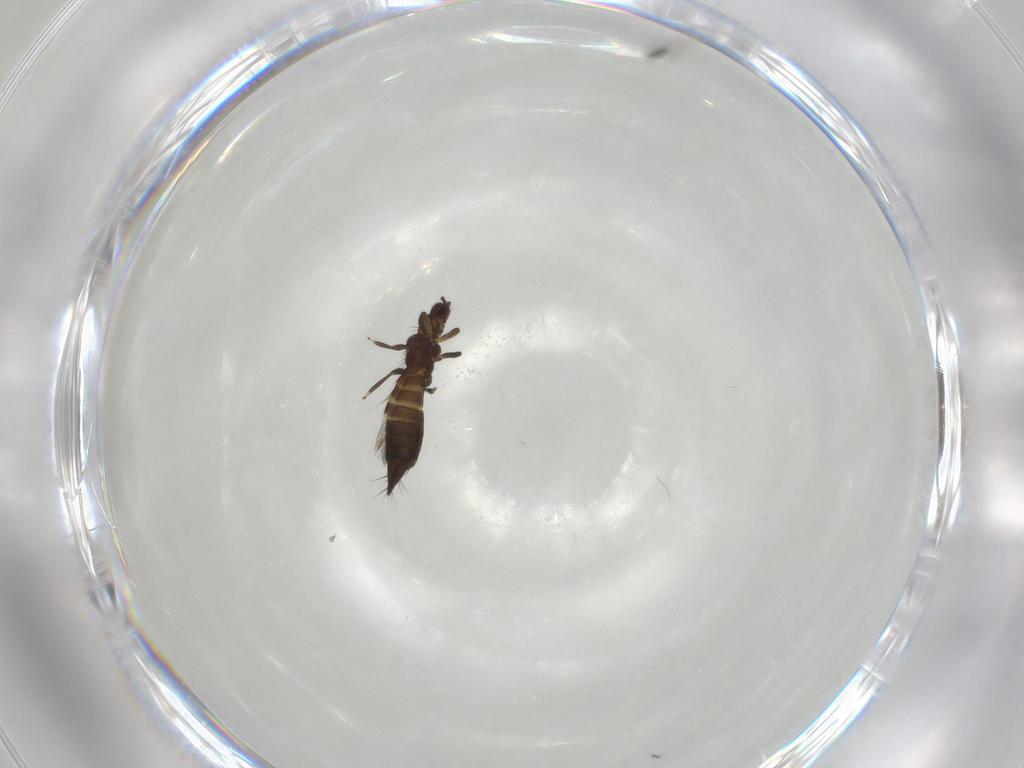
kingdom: Animalia
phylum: Arthropoda
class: Insecta
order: Thysanoptera
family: Thripidae
